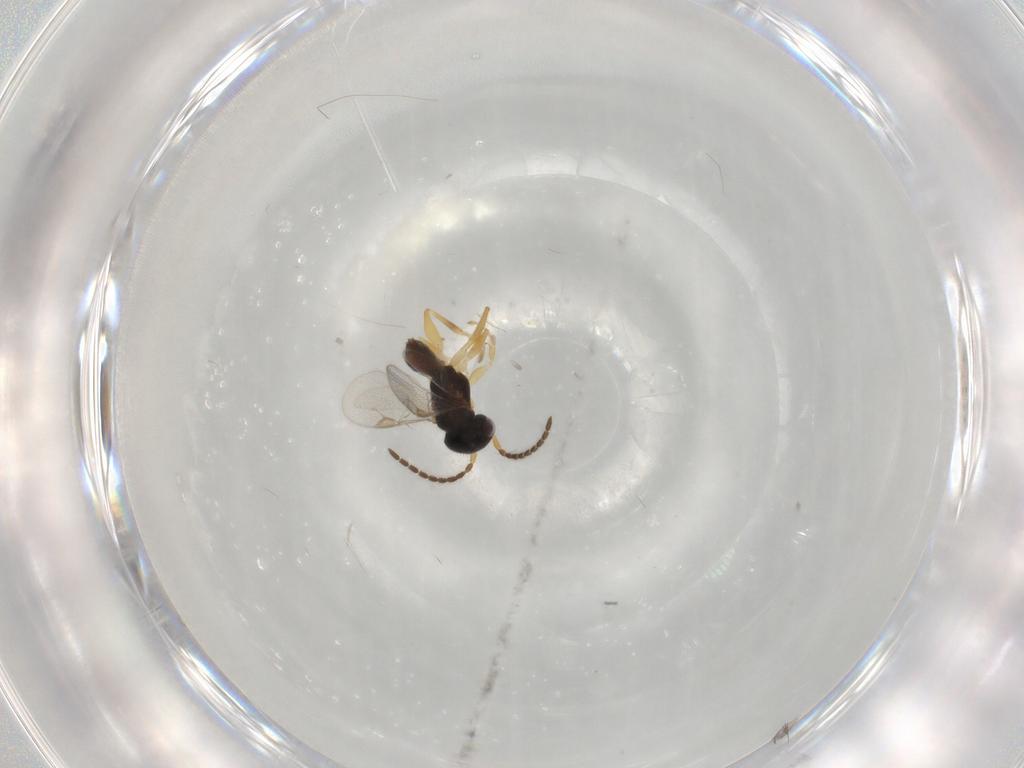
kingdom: Animalia
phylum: Arthropoda
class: Insecta
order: Hymenoptera
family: Dryinidae
